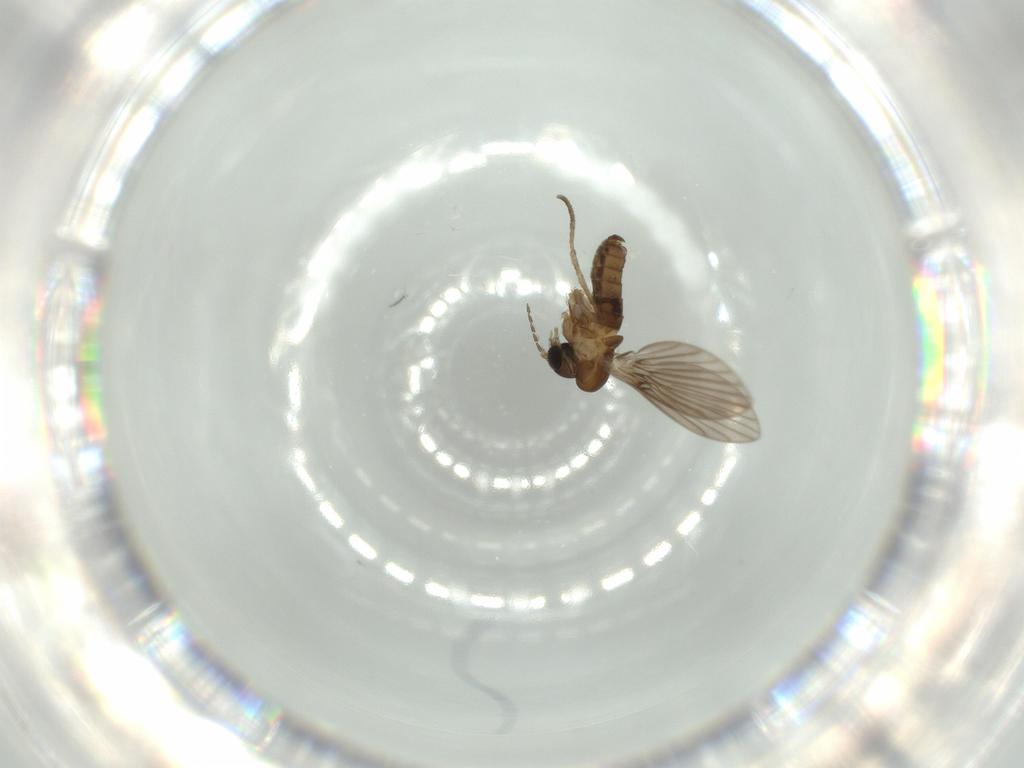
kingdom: Animalia
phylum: Arthropoda
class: Insecta
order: Diptera
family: Psychodidae
